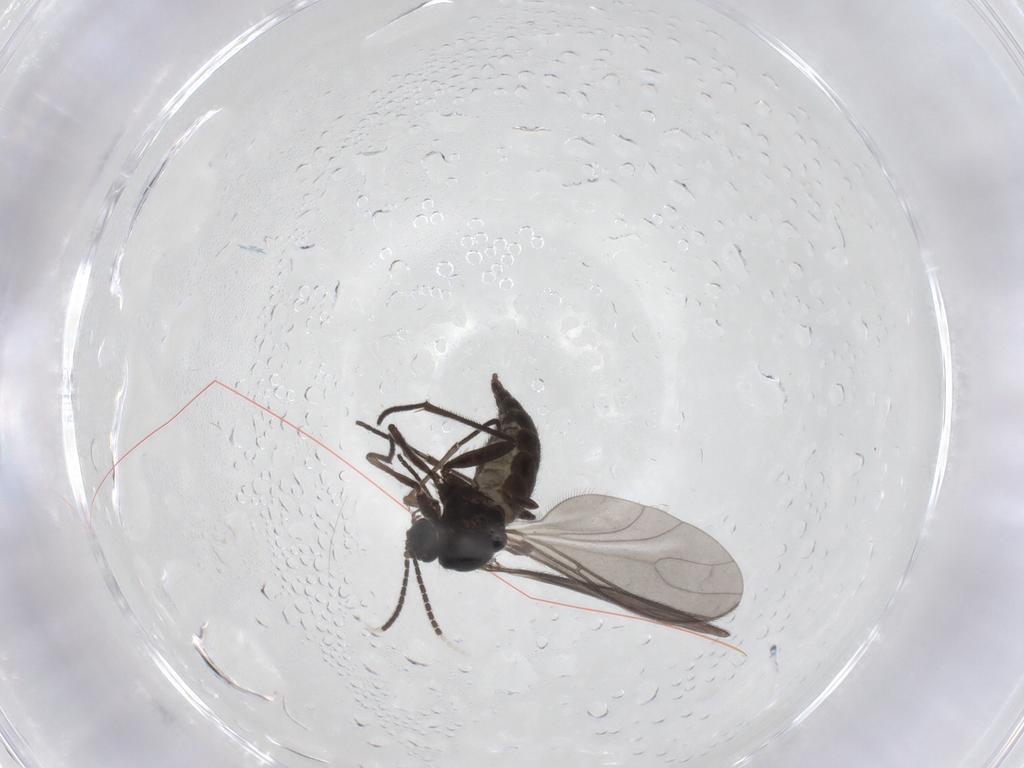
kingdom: Animalia
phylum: Arthropoda
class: Insecta
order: Diptera
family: Sciaridae
